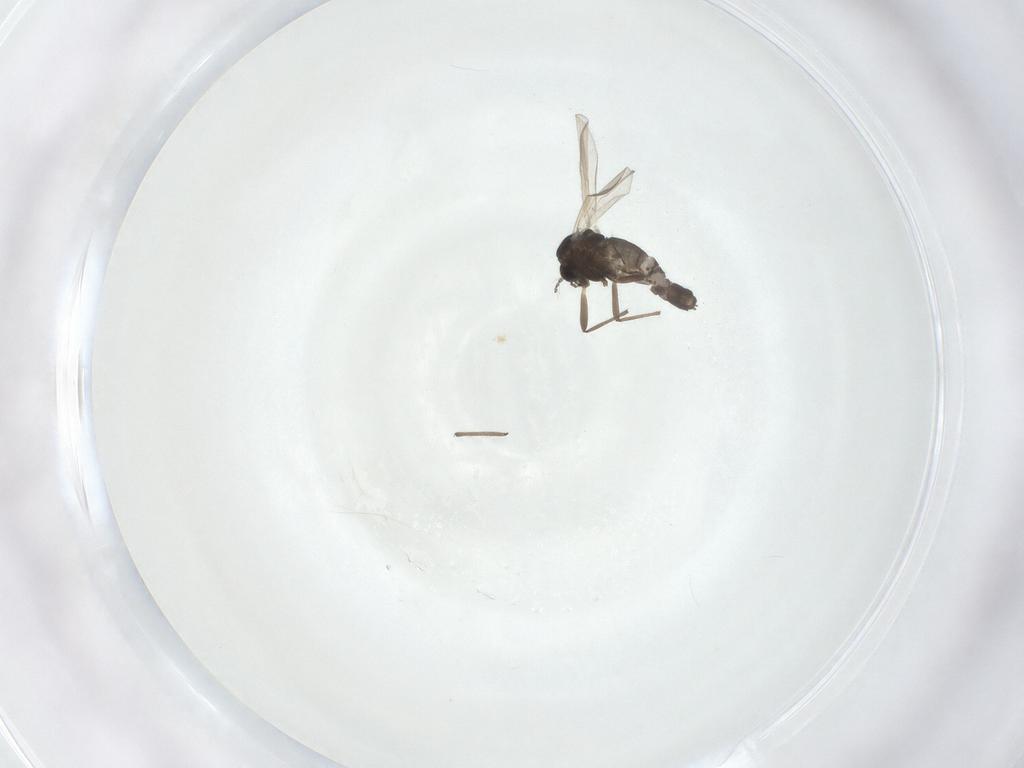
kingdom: Animalia
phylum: Arthropoda
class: Insecta
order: Diptera
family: Chironomidae
